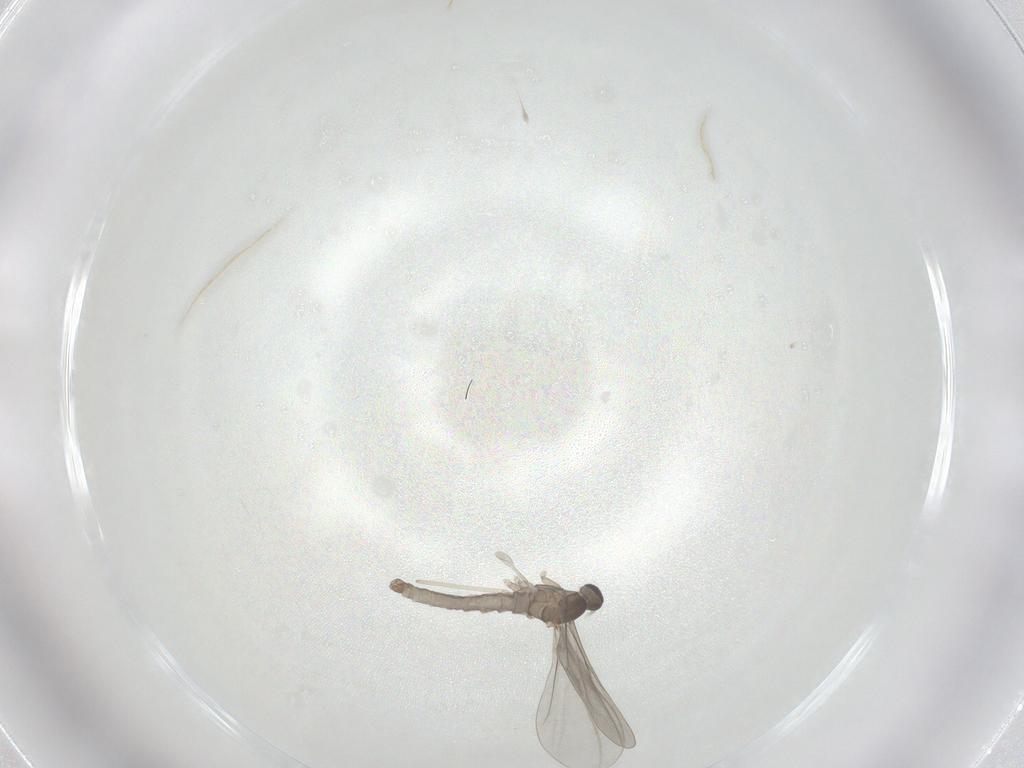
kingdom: Animalia
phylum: Arthropoda
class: Insecta
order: Diptera
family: Cecidomyiidae
